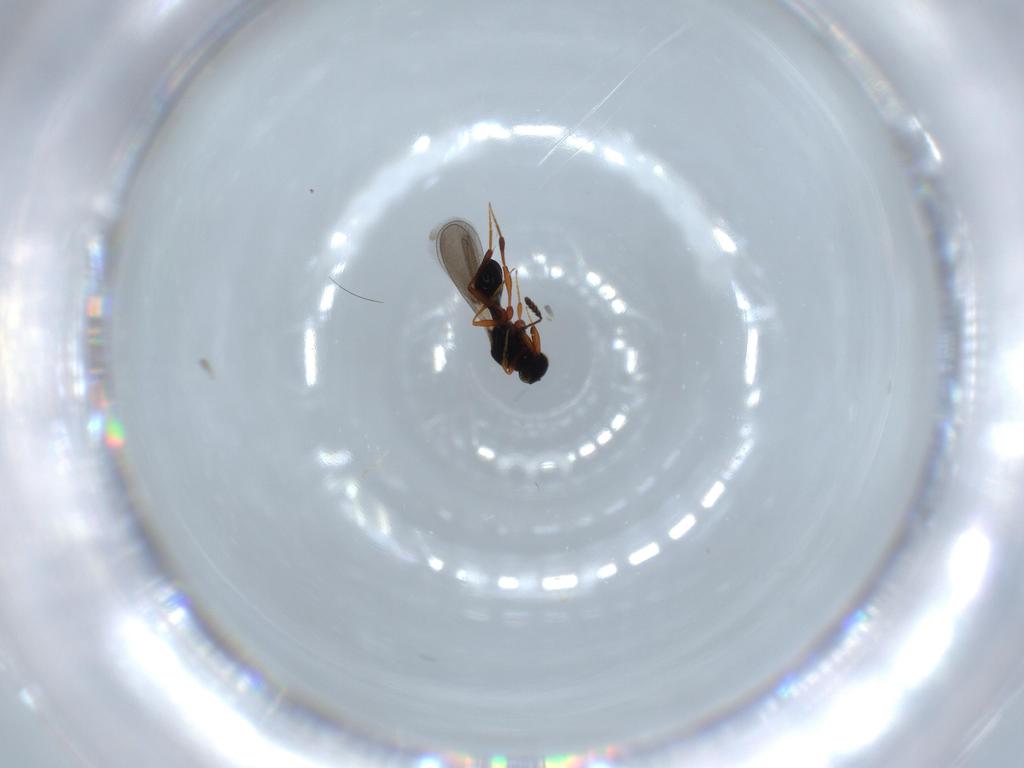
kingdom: Animalia
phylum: Arthropoda
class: Insecta
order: Hymenoptera
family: Platygastridae
